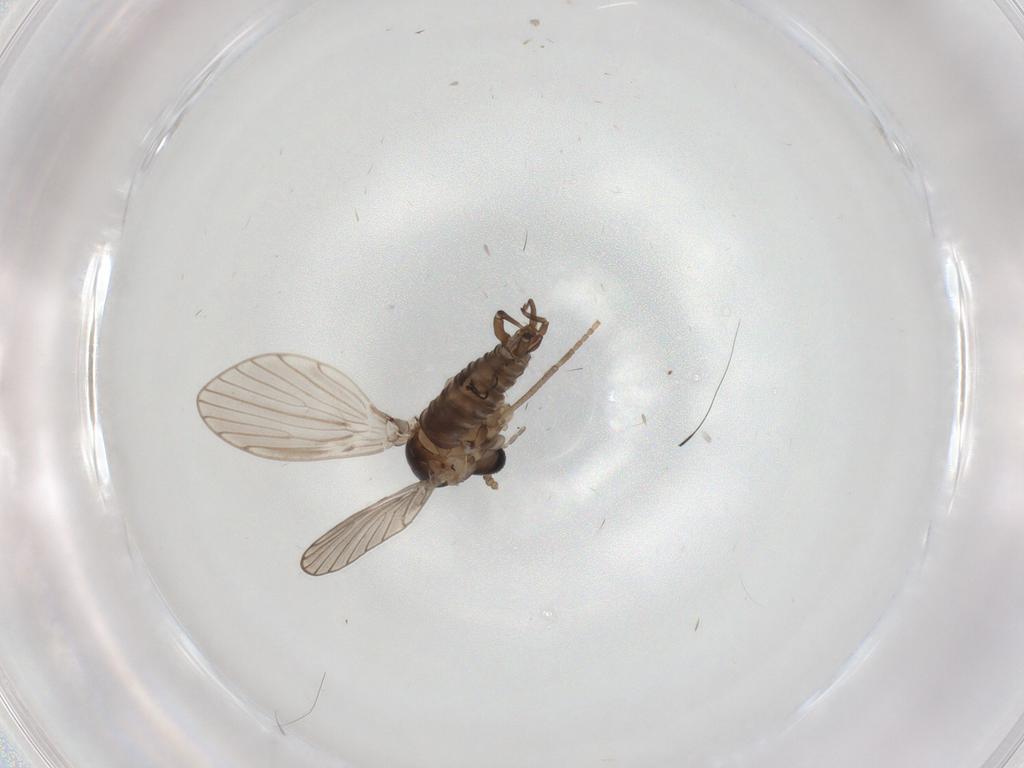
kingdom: Animalia
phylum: Arthropoda
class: Insecta
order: Diptera
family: Psychodidae
